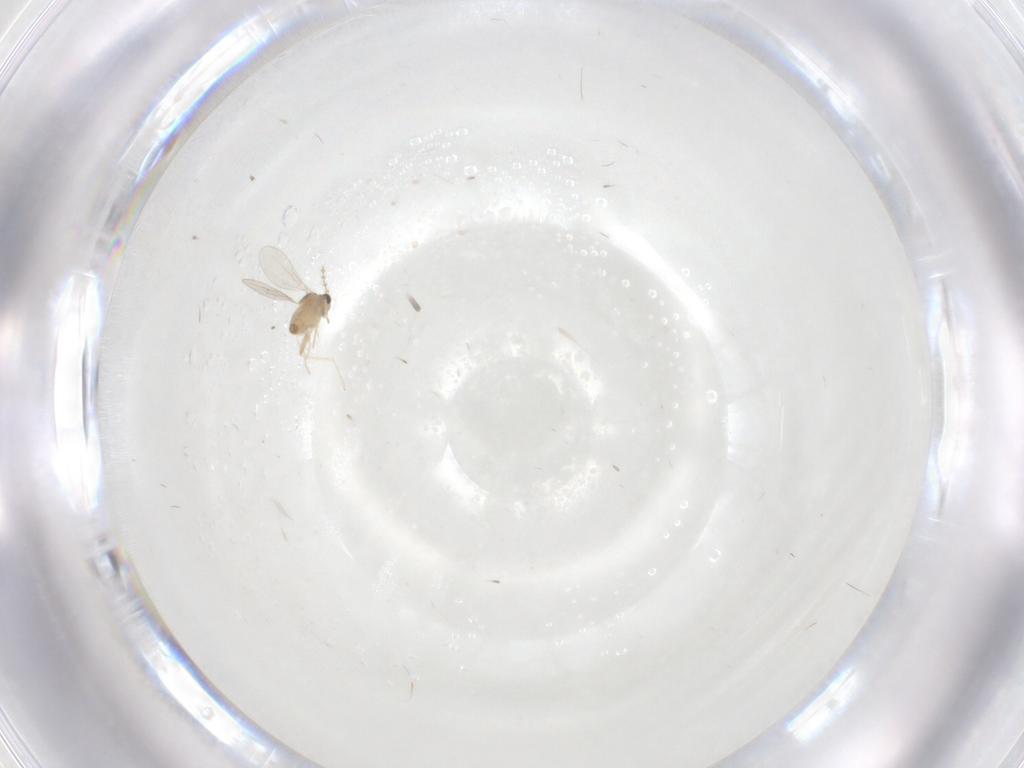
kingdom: Animalia
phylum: Arthropoda
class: Insecta
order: Diptera
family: Cecidomyiidae
